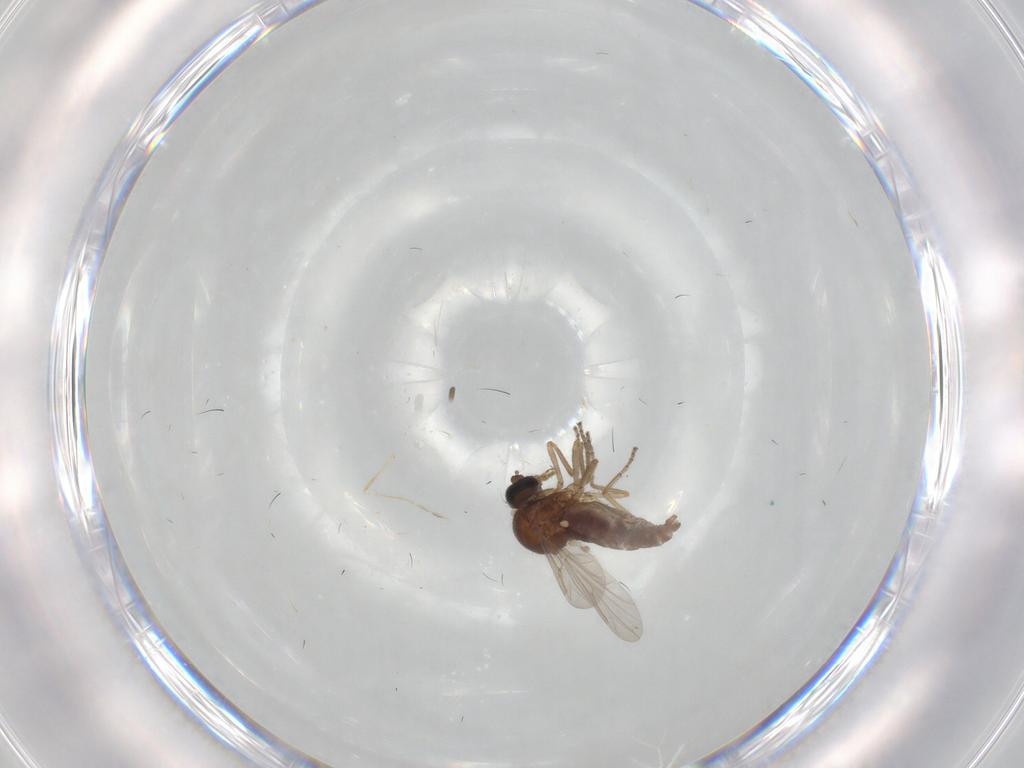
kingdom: Animalia
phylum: Arthropoda
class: Insecta
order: Diptera
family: Ceratopogonidae
